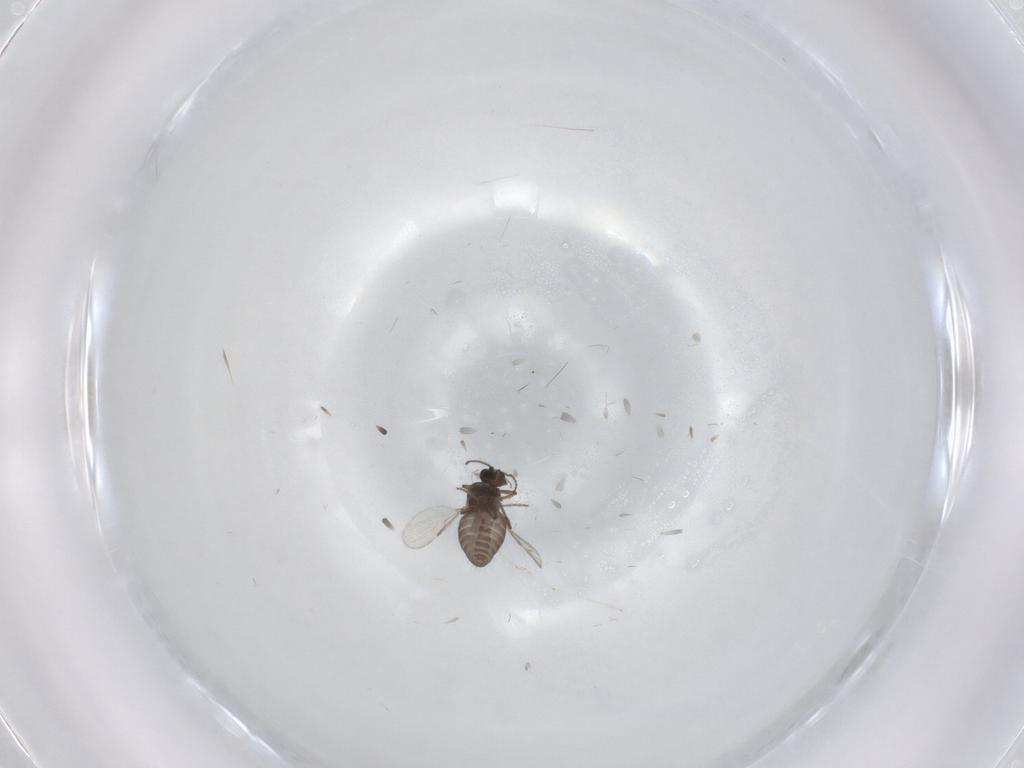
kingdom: Animalia
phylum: Arthropoda
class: Insecta
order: Diptera
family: Ceratopogonidae
